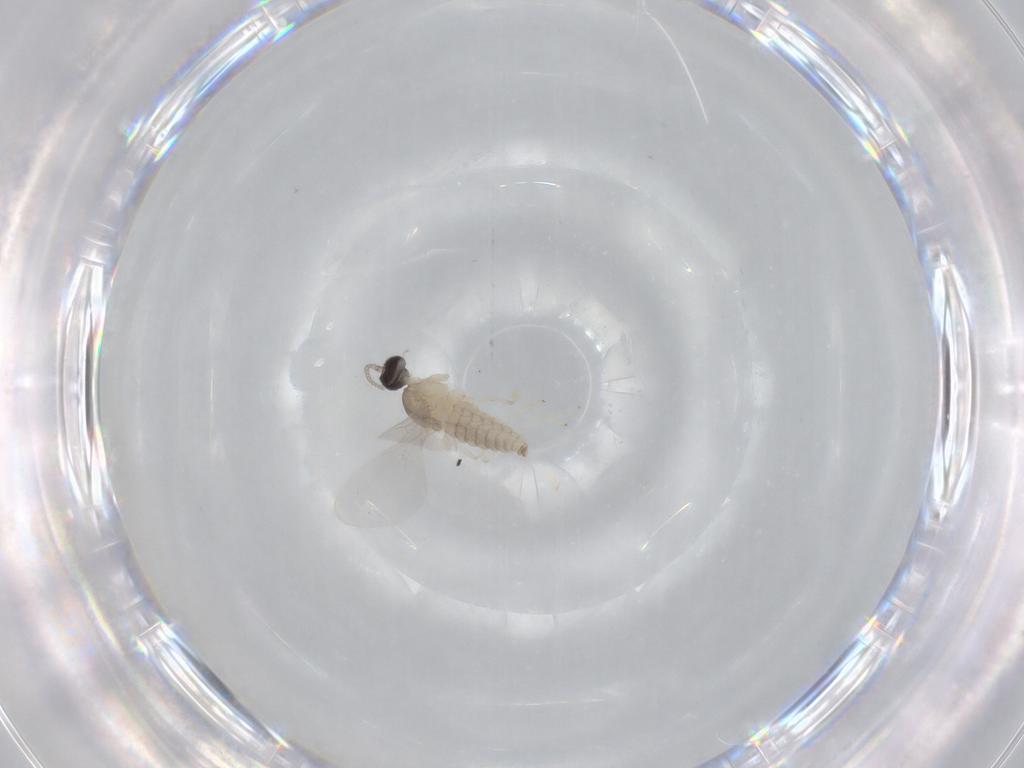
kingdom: Animalia
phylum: Arthropoda
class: Insecta
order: Diptera
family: Cecidomyiidae
